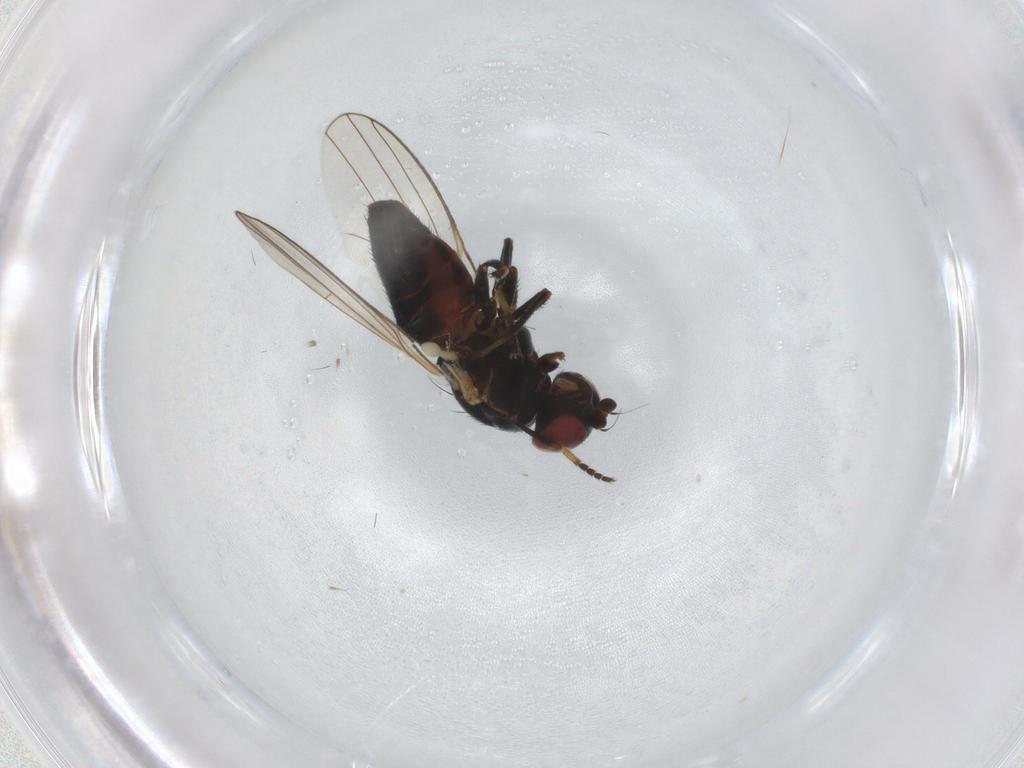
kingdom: Animalia
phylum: Arthropoda
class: Insecta
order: Diptera
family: Chamaemyiidae
